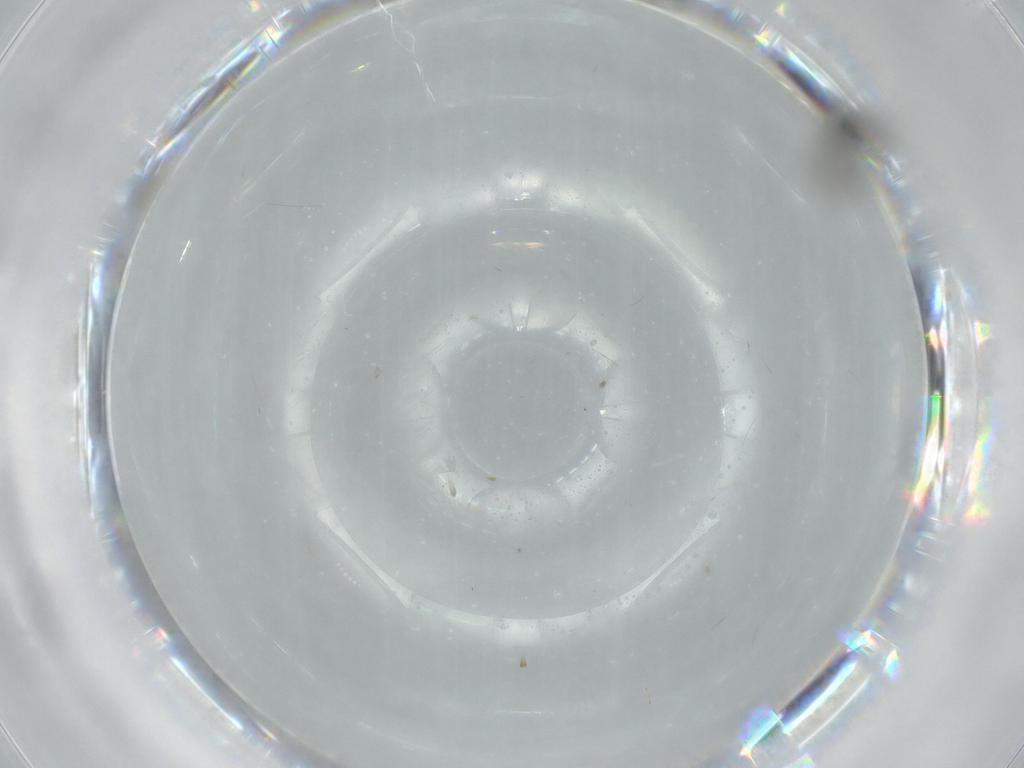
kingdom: Animalia
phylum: Arthropoda
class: Insecta
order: Diptera
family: Sciaridae
